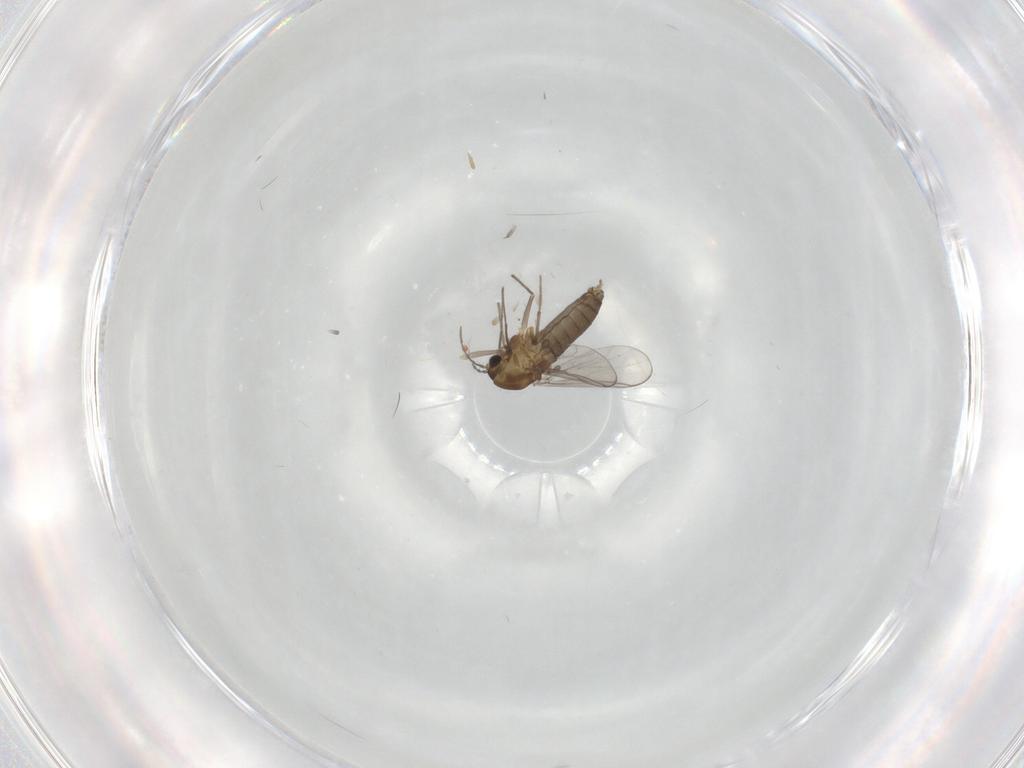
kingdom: Animalia
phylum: Arthropoda
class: Insecta
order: Diptera
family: Chironomidae
